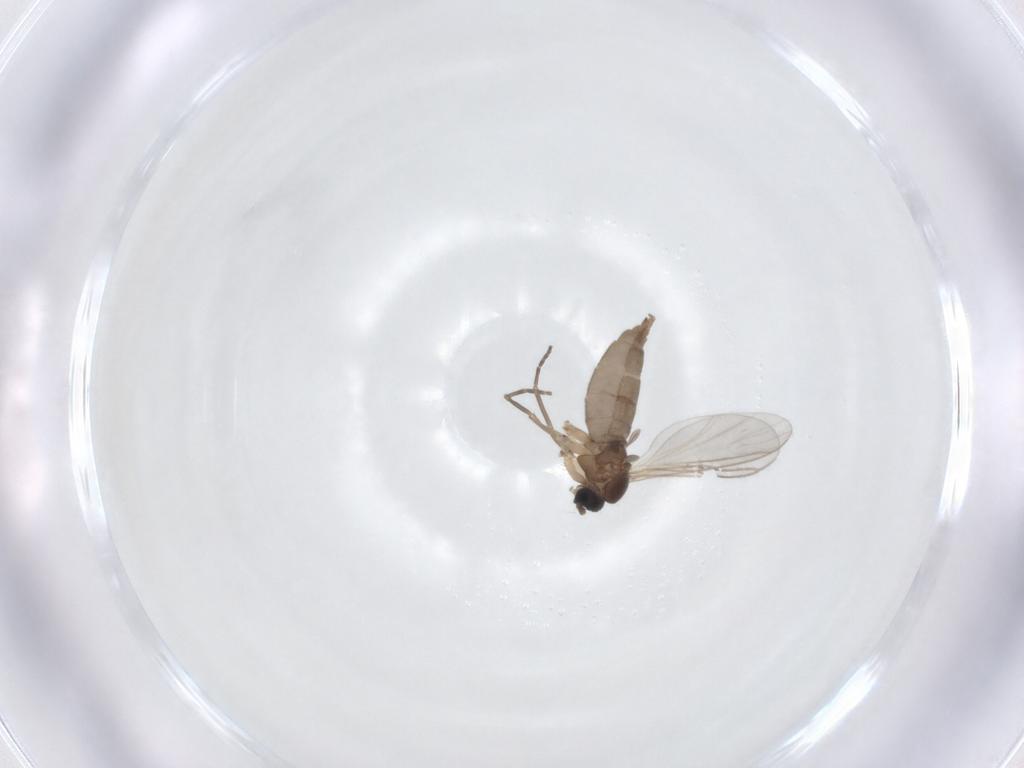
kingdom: Animalia
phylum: Arthropoda
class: Insecta
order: Diptera
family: Sciaridae
